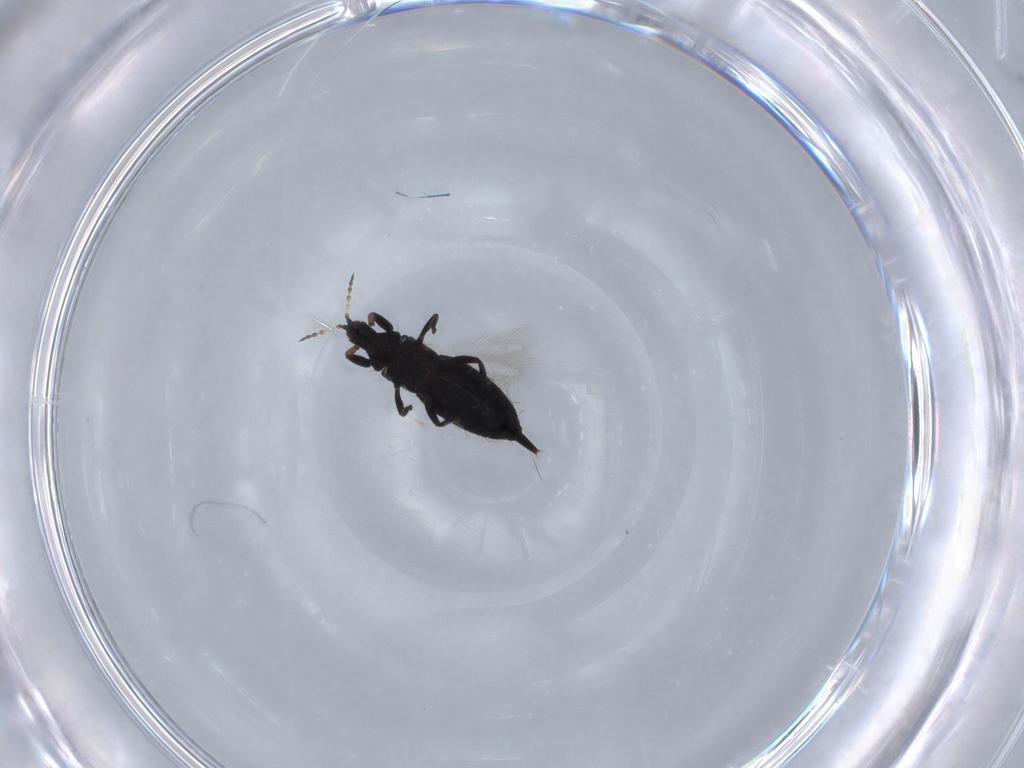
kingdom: Animalia
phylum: Arthropoda
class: Insecta
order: Thysanoptera
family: Phlaeothripidae
